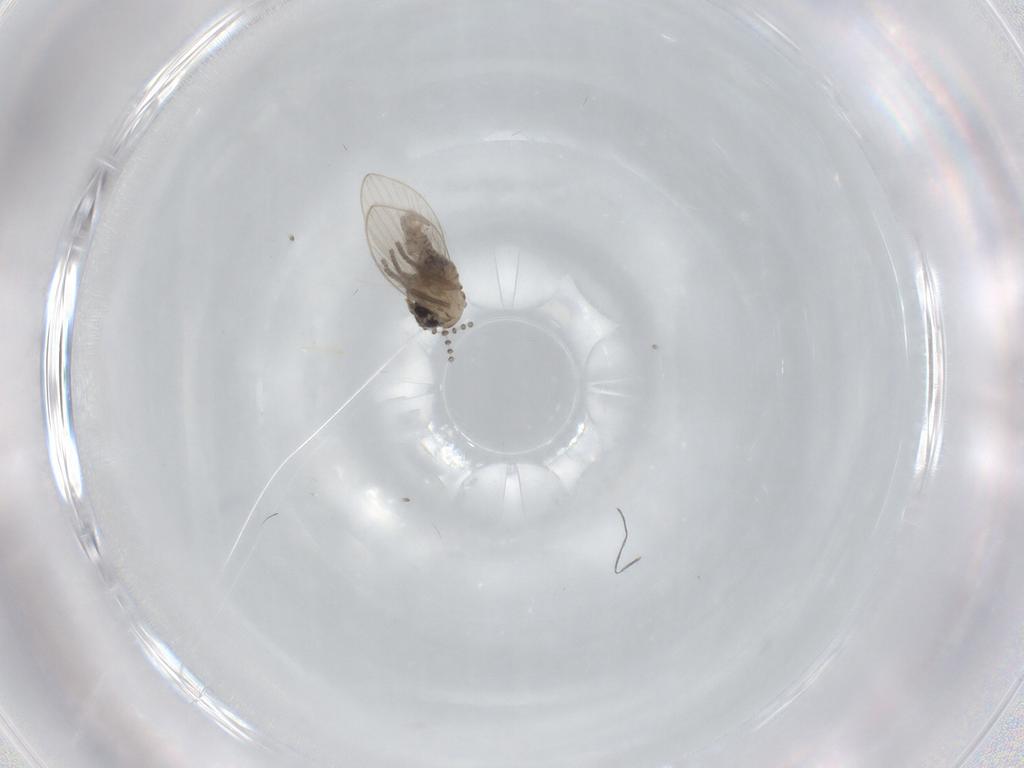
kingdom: Animalia
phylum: Arthropoda
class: Insecta
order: Diptera
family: Psychodidae
